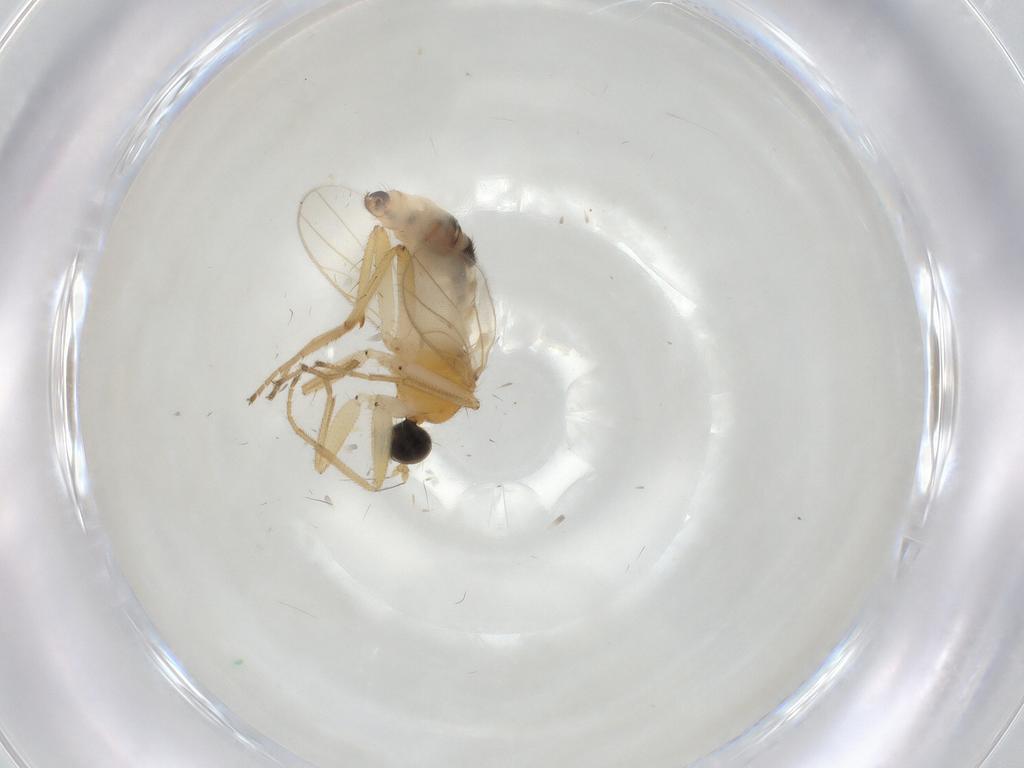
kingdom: Animalia
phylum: Arthropoda
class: Insecta
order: Diptera
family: Hybotidae
